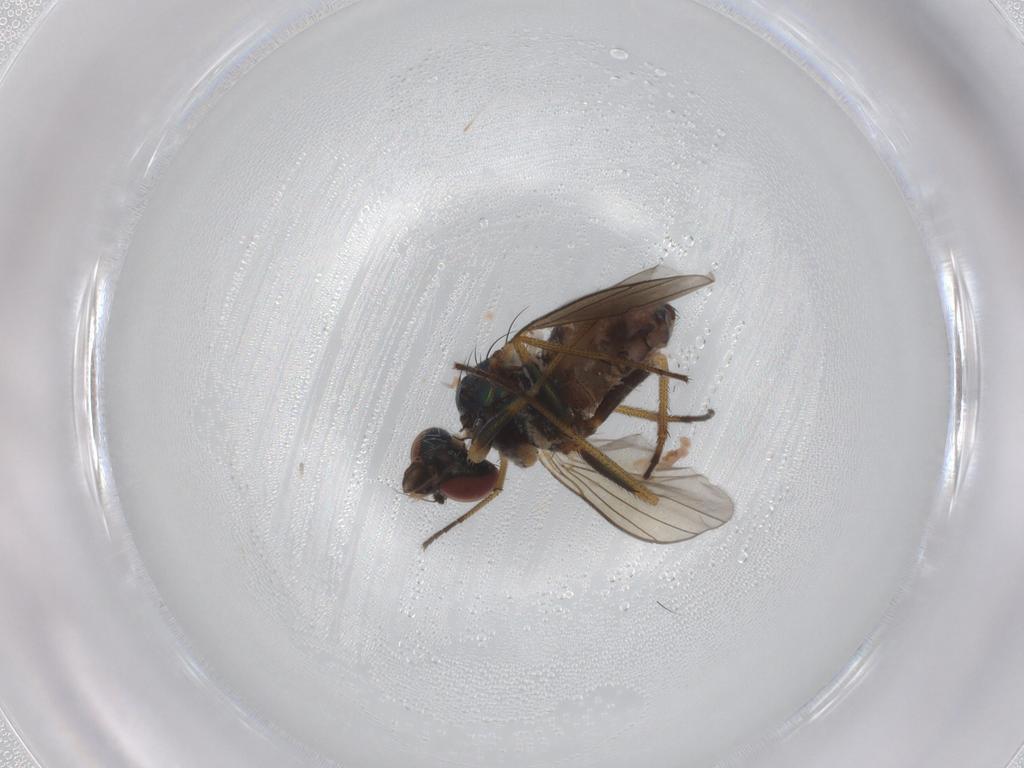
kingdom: Animalia
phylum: Arthropoda
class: Insecta
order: Diptera
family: Dolichopodidae
